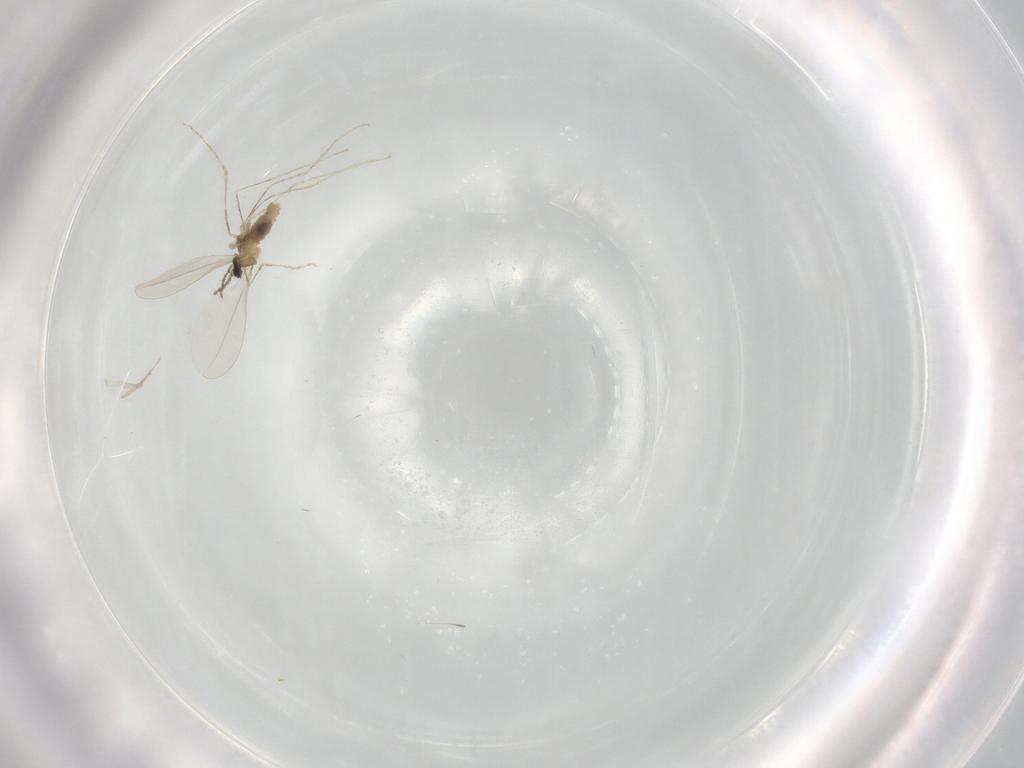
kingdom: Animalia
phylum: Arthropoda
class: Insecta
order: Diptera
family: Cecidomyiidae
